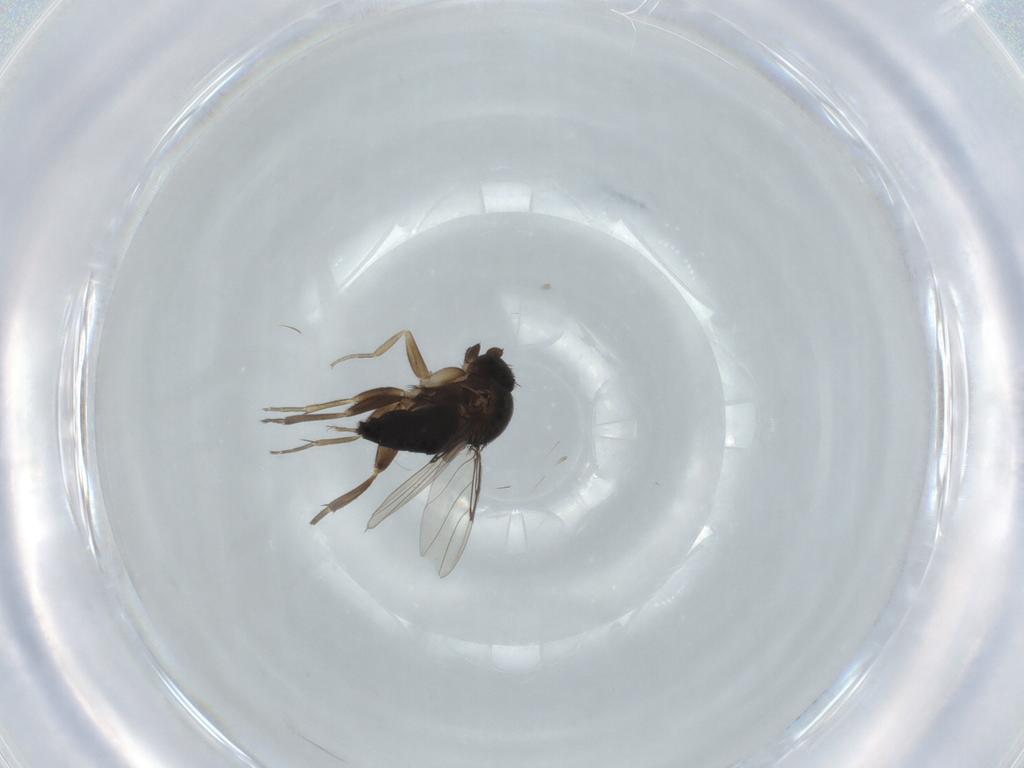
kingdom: Animalia
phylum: Arthropoda
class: Insecta
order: Diptera
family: Phoridae
